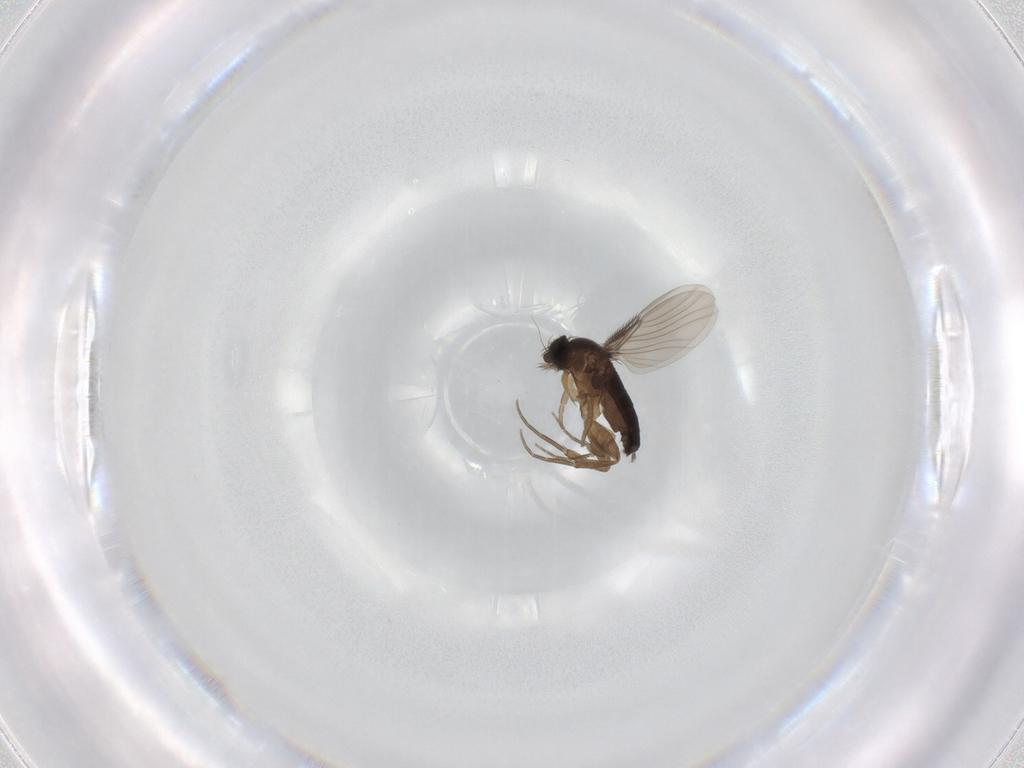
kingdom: Animalia
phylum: Arthropoda
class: Insecta
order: Diptera
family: Phoridae
